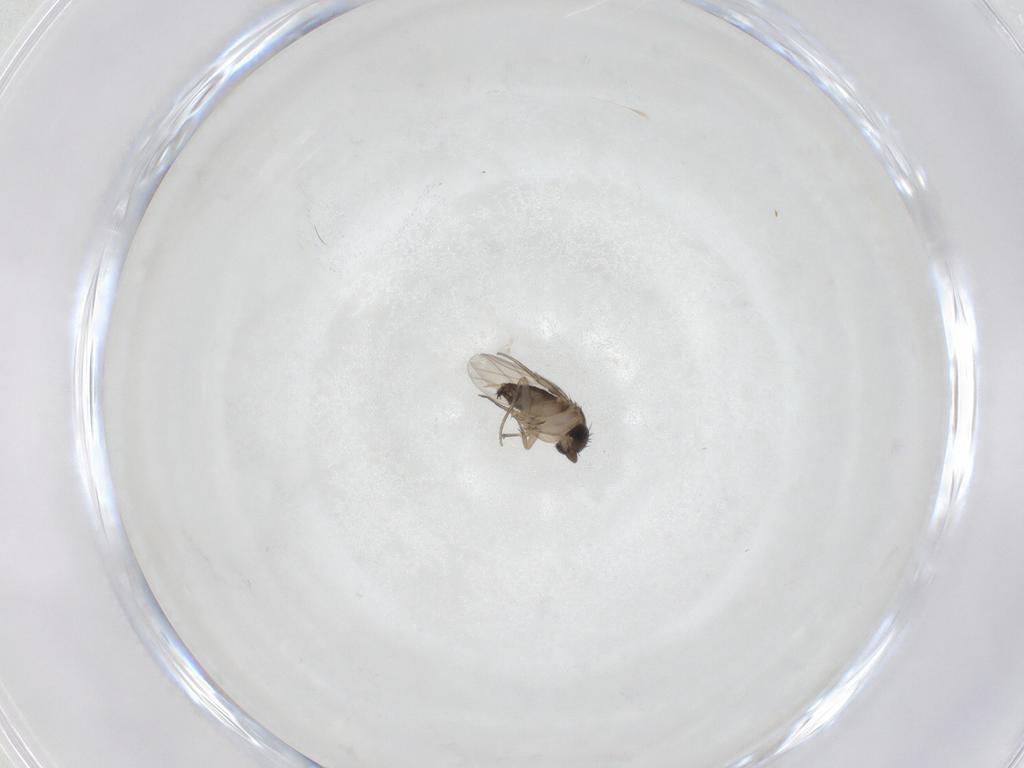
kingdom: Animalia
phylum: Arthropoda
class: Insecta
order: Diptera
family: Phoridae
